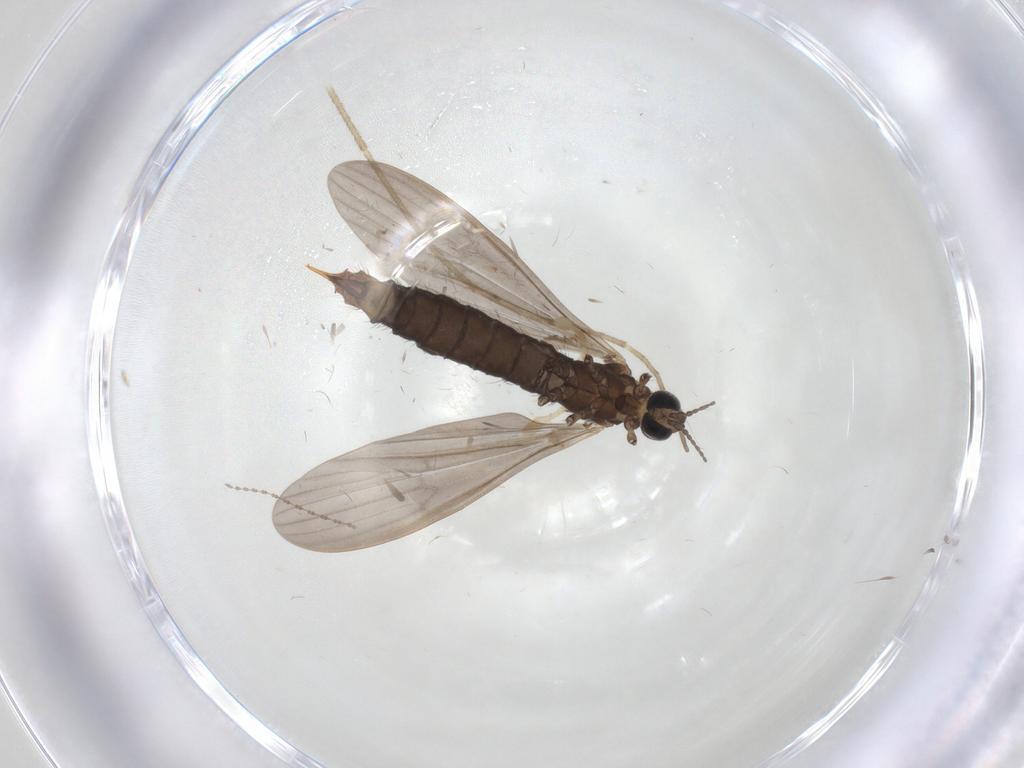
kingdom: Animalia
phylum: Arthropoda
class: Insecta
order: Diptera
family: Limoniidae
